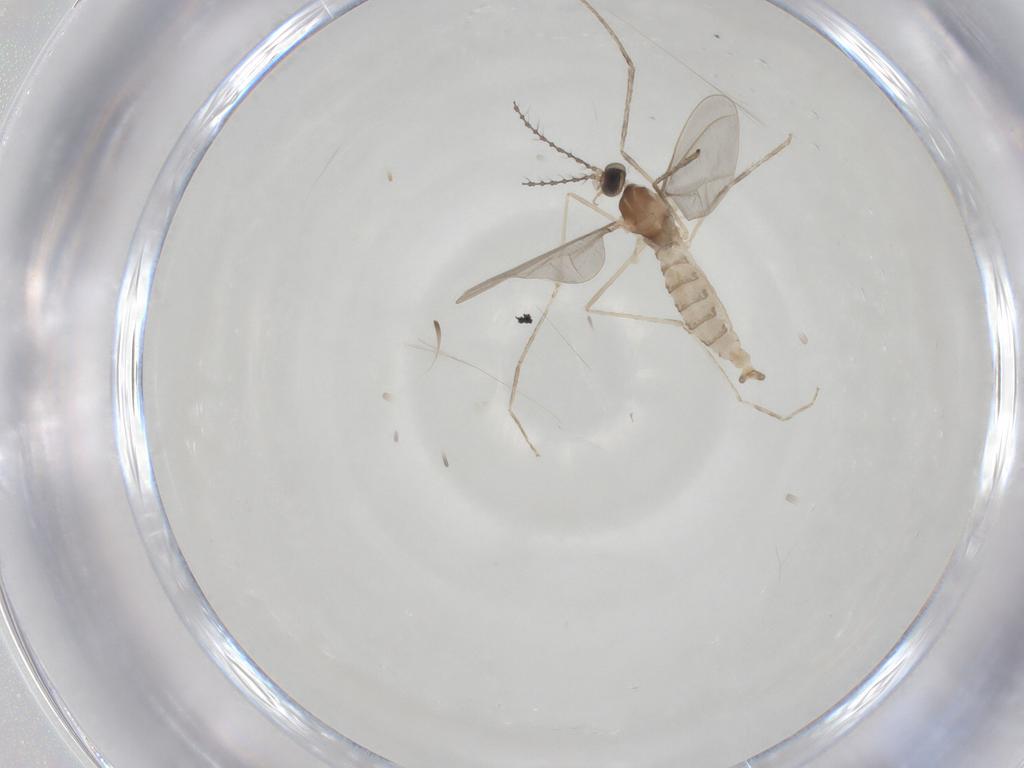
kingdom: Animalia
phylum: Arthropoda
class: Insecta
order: Diptera
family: Cecidomyiidae
